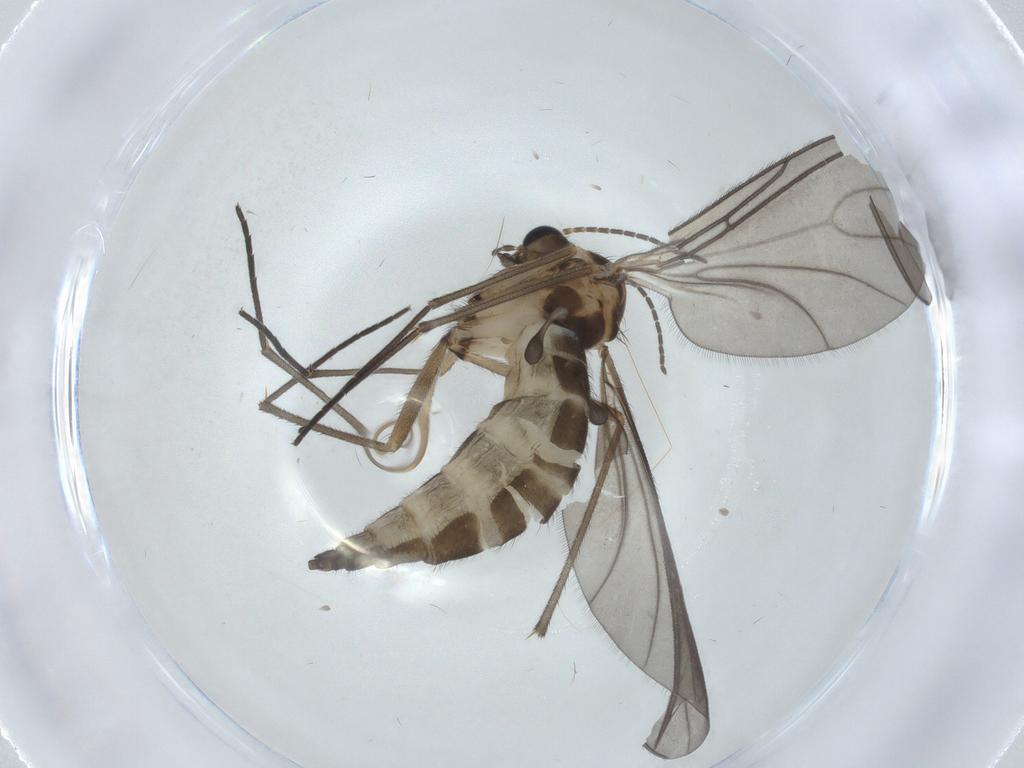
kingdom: Animalia
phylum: Arthropoda
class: Insecta
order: Diptera
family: Sciaridae
